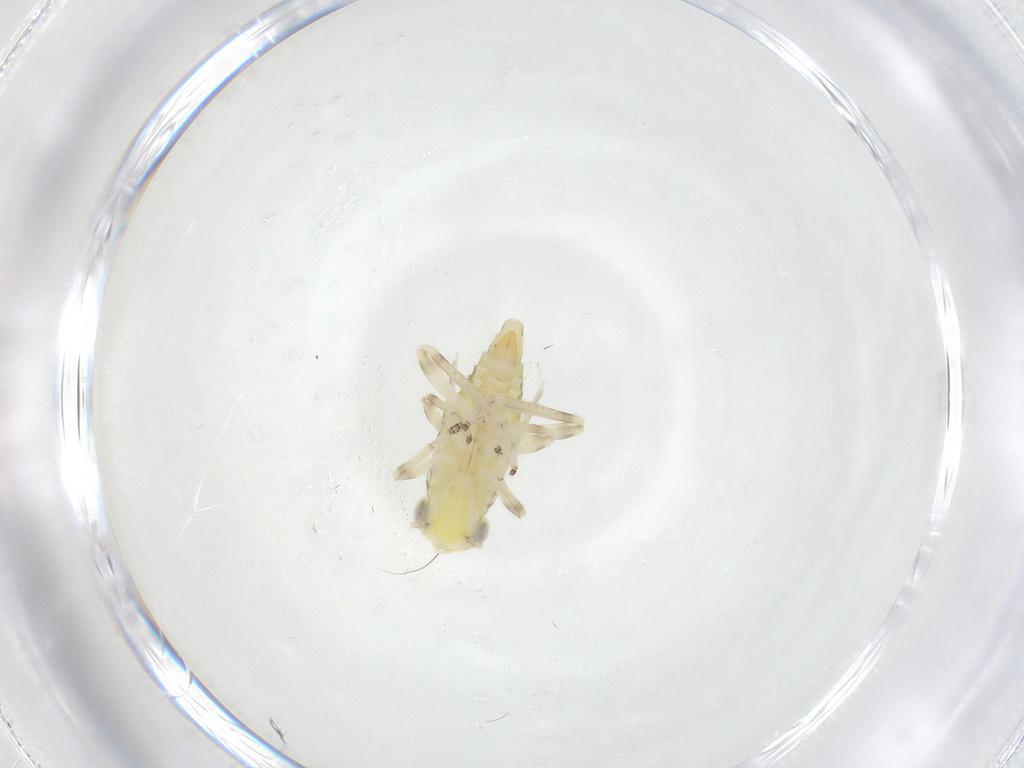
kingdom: Animalia
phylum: Arthropoda
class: Insecta
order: Hemiptera
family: Cicadellidae
